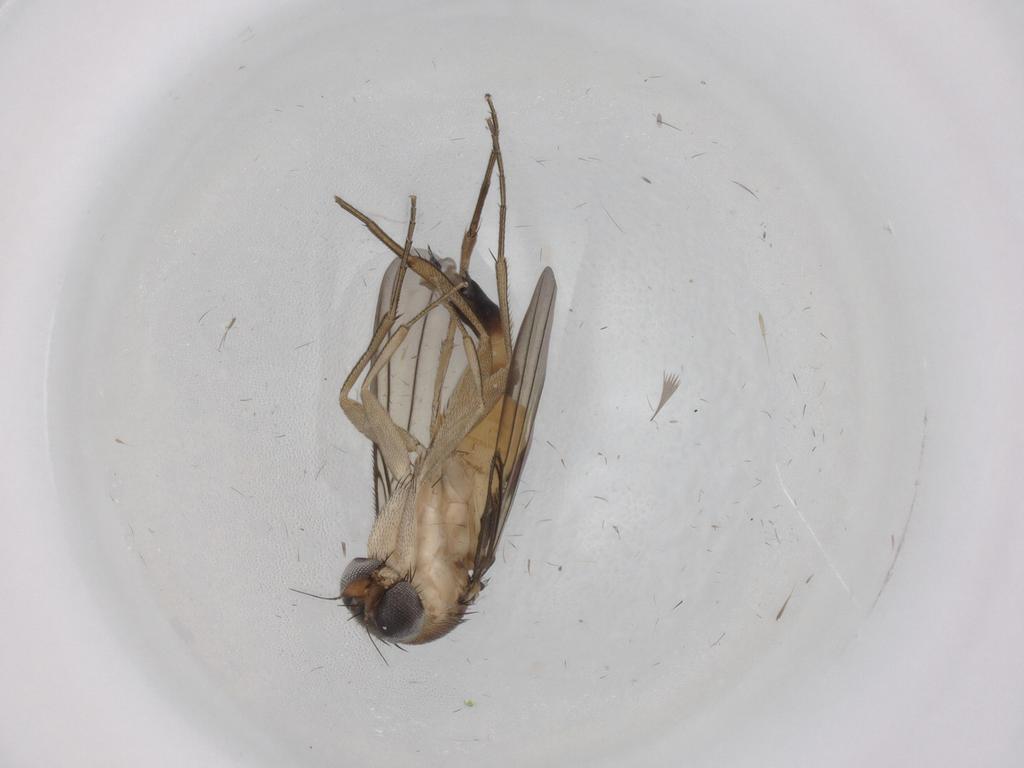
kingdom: Animalia
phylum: Arthropoda
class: Insecta
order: Diptera
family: Phoridae
